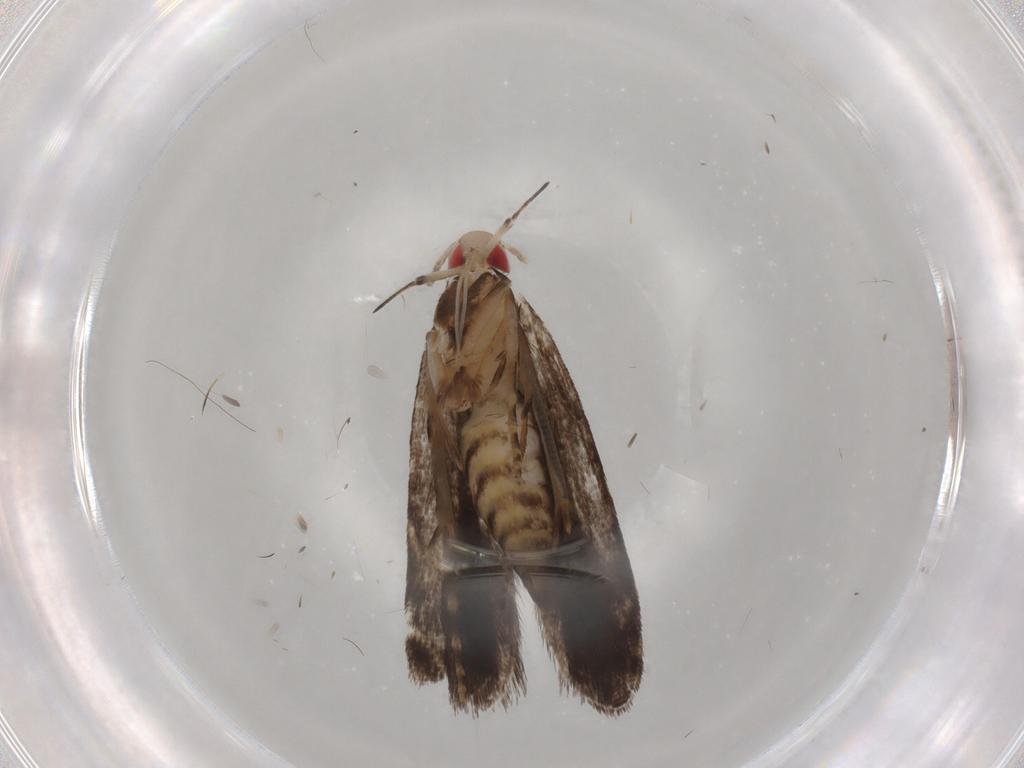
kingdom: Animalia
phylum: Arthropoda
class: Insecta
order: Lepidoptera
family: Gelechiidae
